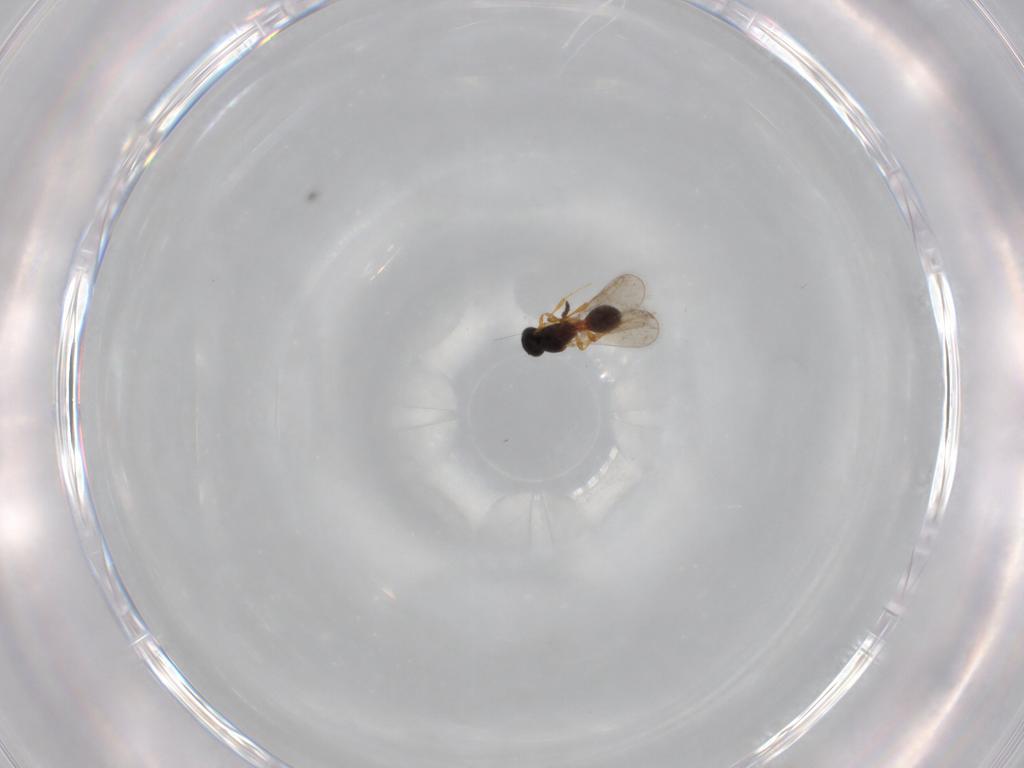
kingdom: Animalia
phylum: Arthropoda
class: Insecta
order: Hymenoptera
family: Platygastridae
